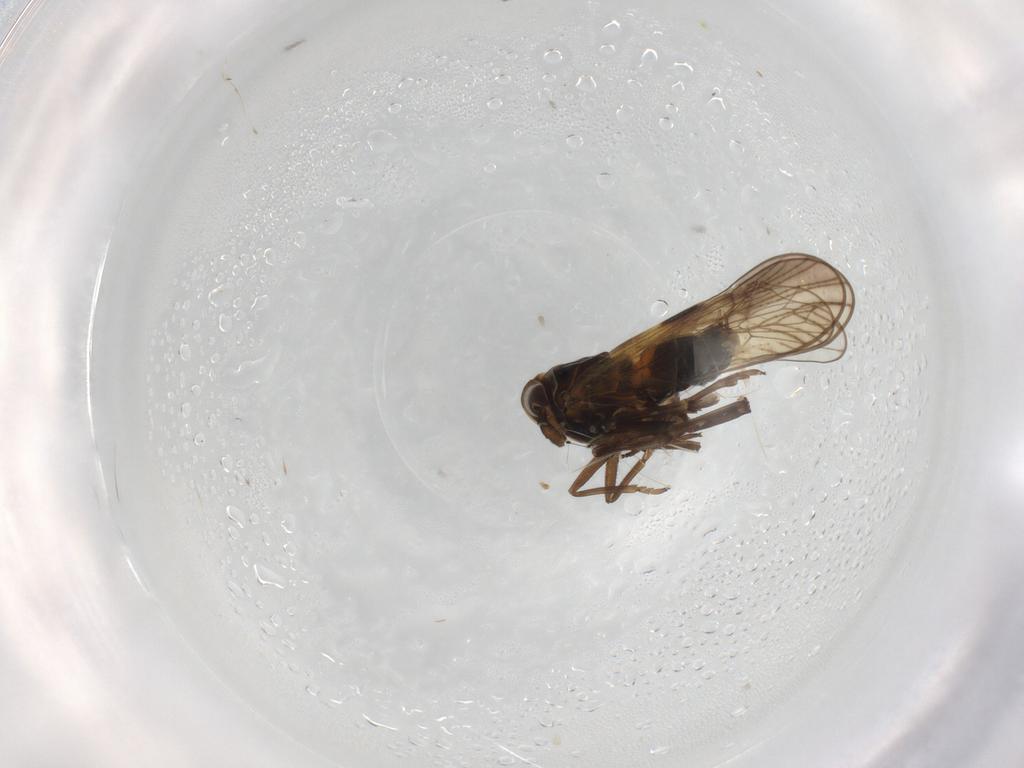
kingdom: Animalia
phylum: Arthropoda
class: Insecta
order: Hemiptera
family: Delphacidae
